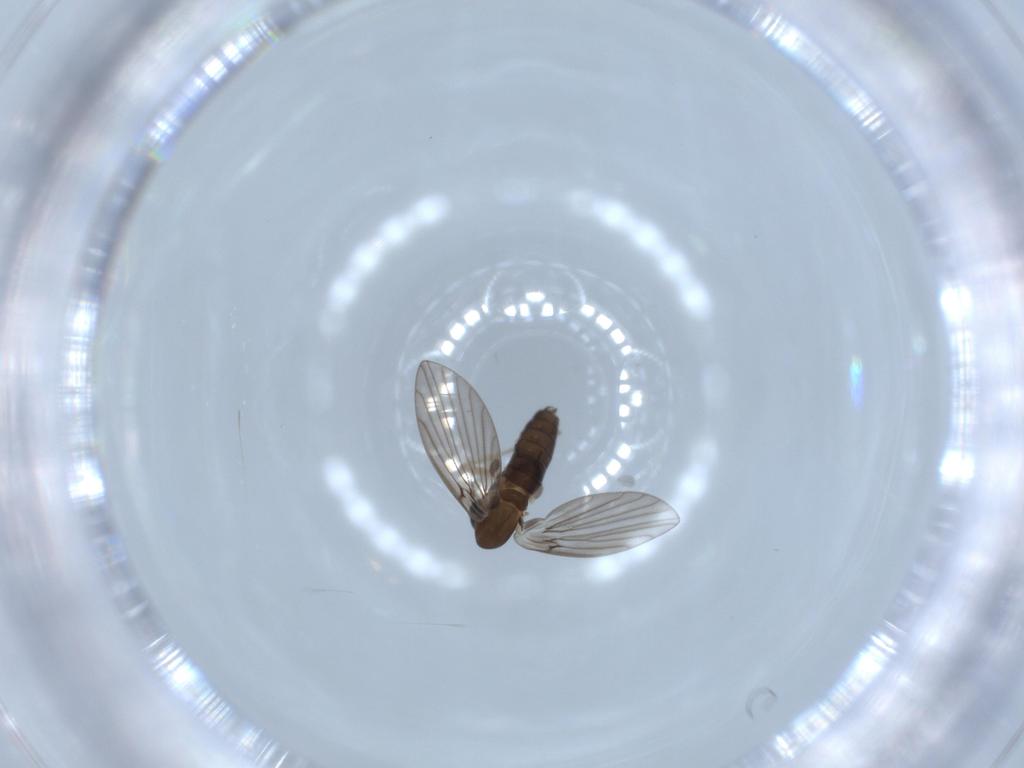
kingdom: Animalia
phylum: Arthropoda
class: Insecta
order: Diptera
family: Psychodidae
